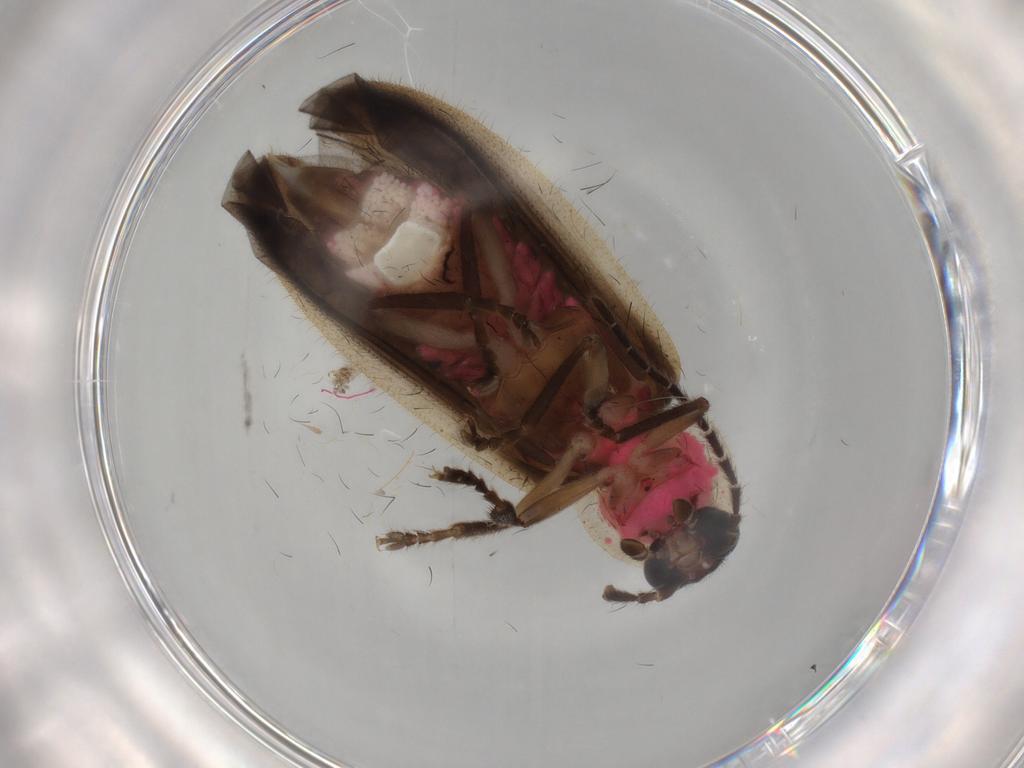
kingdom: Animalia
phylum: Arthropoda
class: Insecta
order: Coleoptera
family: Lampyridae
